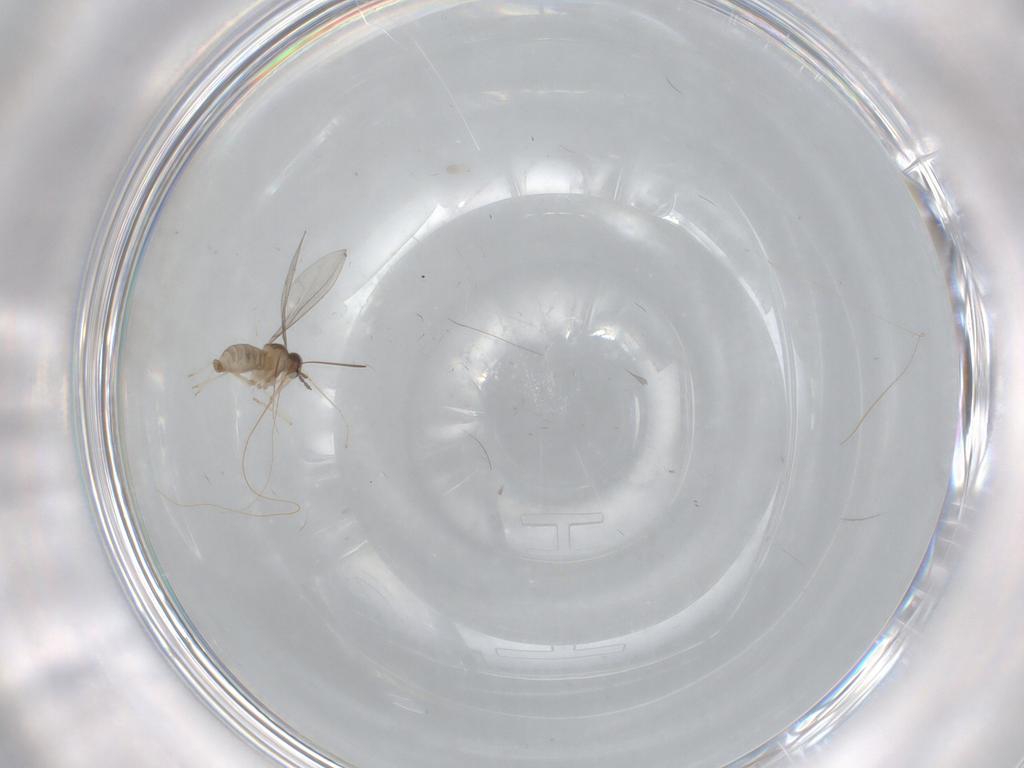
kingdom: Animalia
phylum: Arthropoda
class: Insecta
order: Diptera
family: Cecidomyiidae
